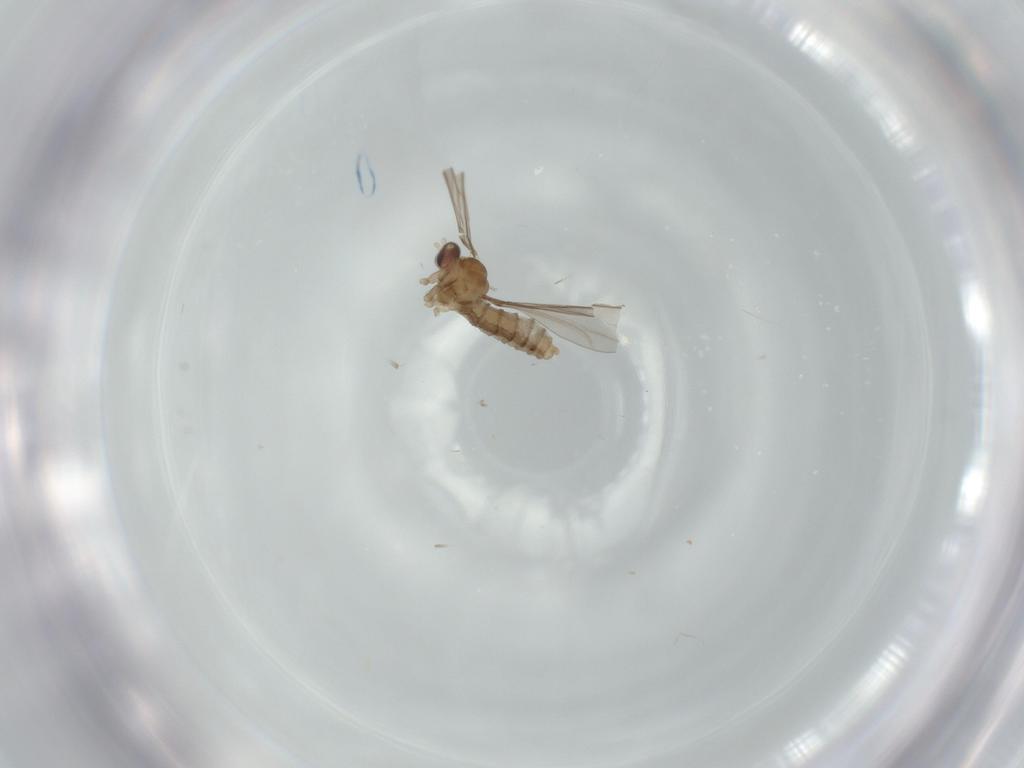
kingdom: Animalia
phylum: Arthropoda
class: Insecta
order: Diptera
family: Cecidomyiidae
